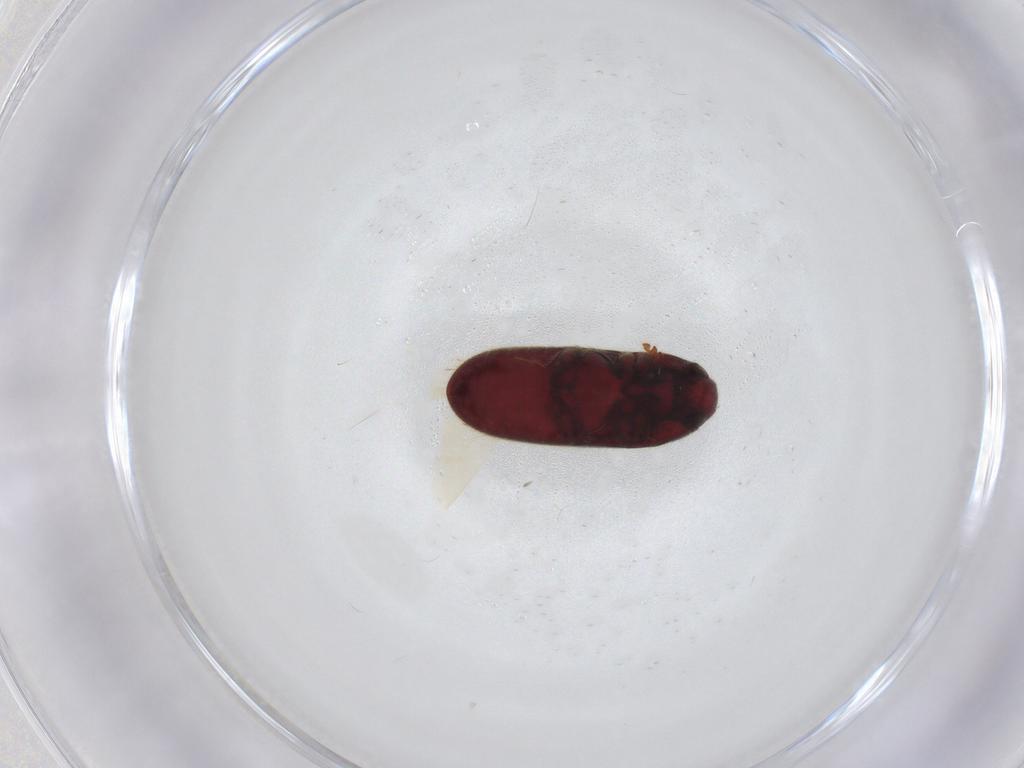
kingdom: Animalia
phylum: Arthropoda
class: Insecta
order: Coleoptera
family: Throscidae
